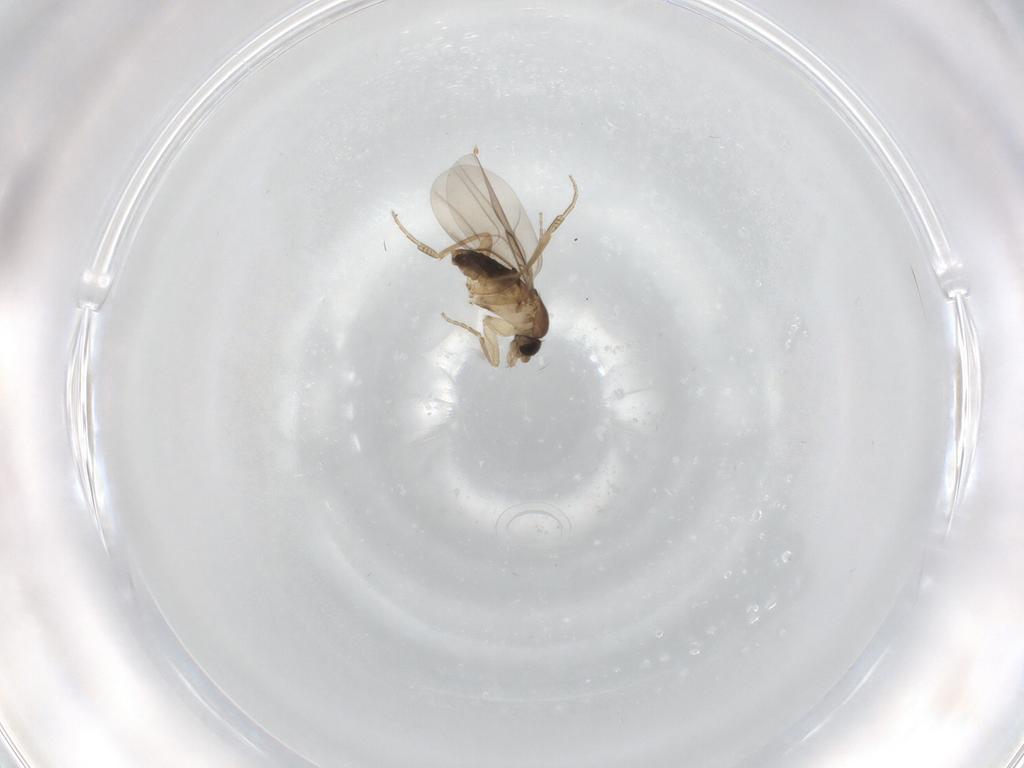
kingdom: Animalia
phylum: Arthropoda
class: Insecta
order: Diptera
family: Phoridae
